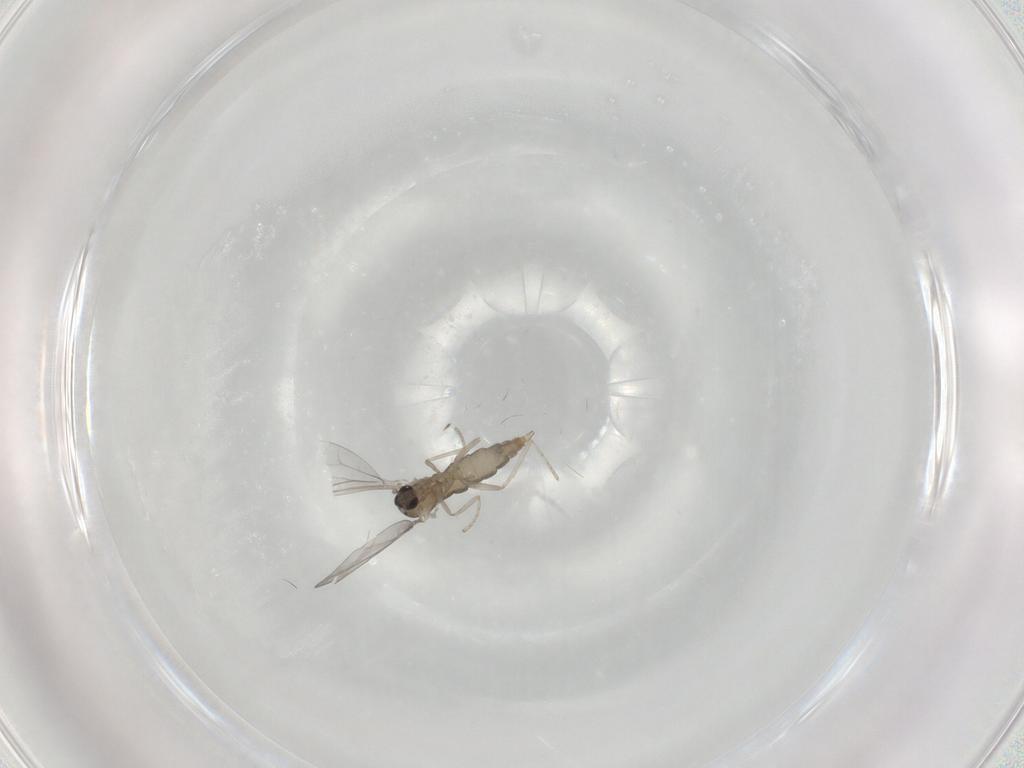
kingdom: Animalia
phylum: Arthropoda
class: Insecta
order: Diptera
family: Cecidomyiidae
